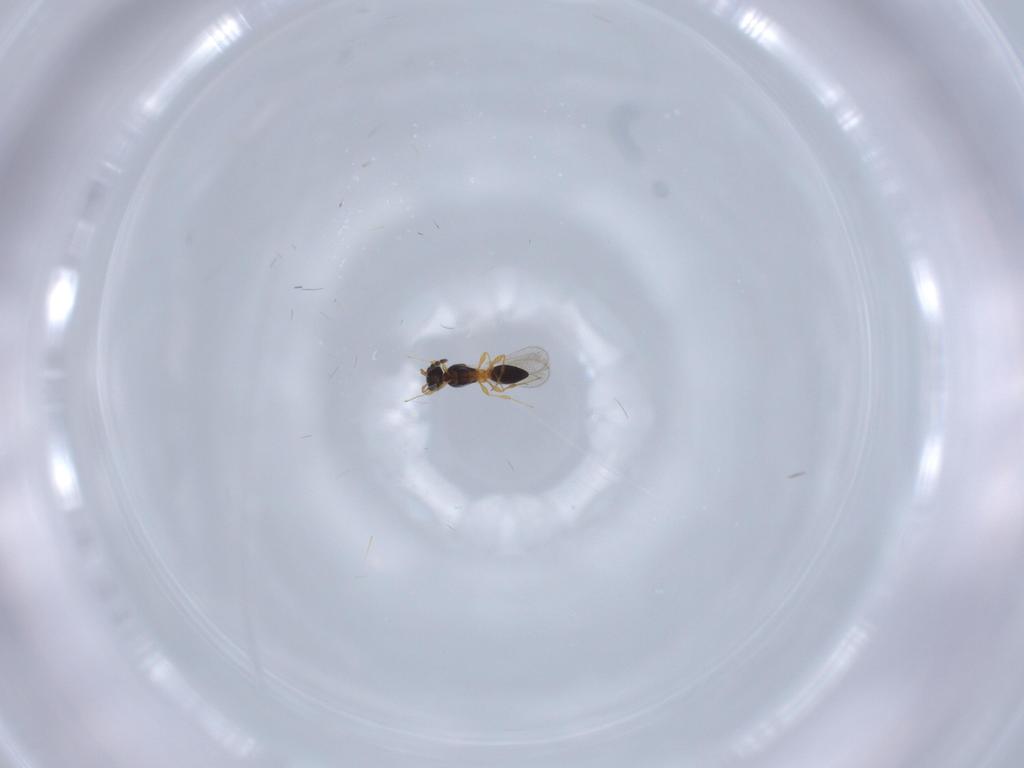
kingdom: Animalia
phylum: Arthropoda
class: Insecta
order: Hymenoptera
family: Platygastridae
